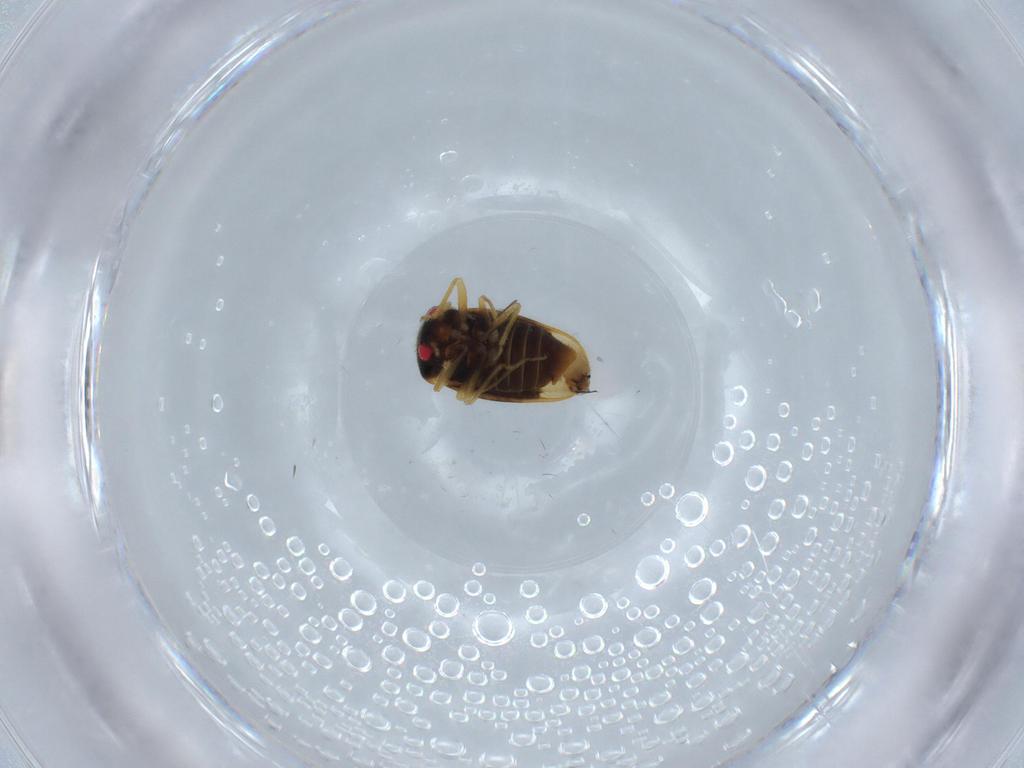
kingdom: Animalia
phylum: Arthropoda
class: Insecta
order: Hemiptera
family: Schizopteridae
